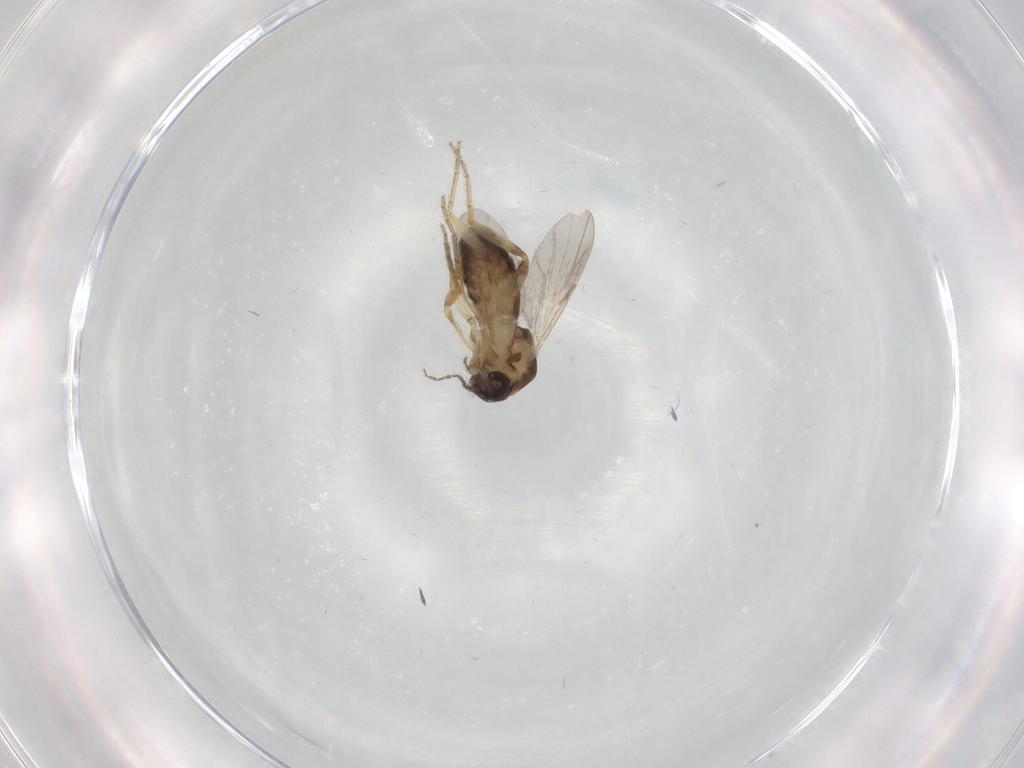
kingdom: Animalia
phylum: Arthropoda
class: Insecta
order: Diptera
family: Ceratopogonidae
